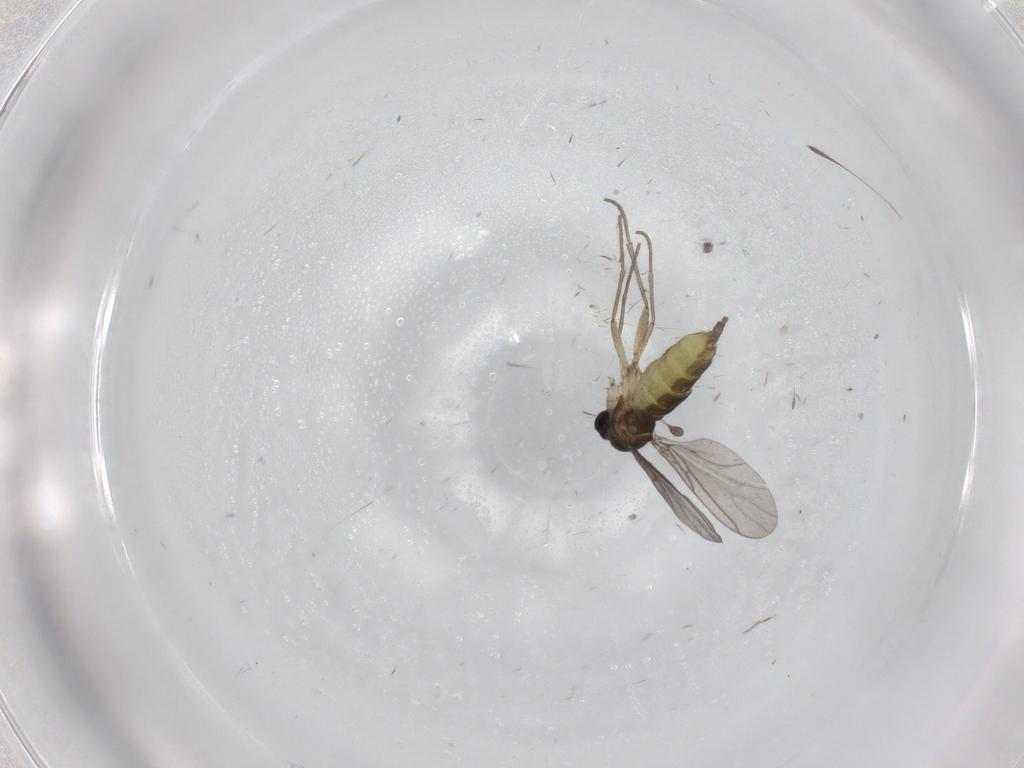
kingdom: Animalia
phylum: Arthropoda
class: Insecta
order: Diptera
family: Sciaridae
